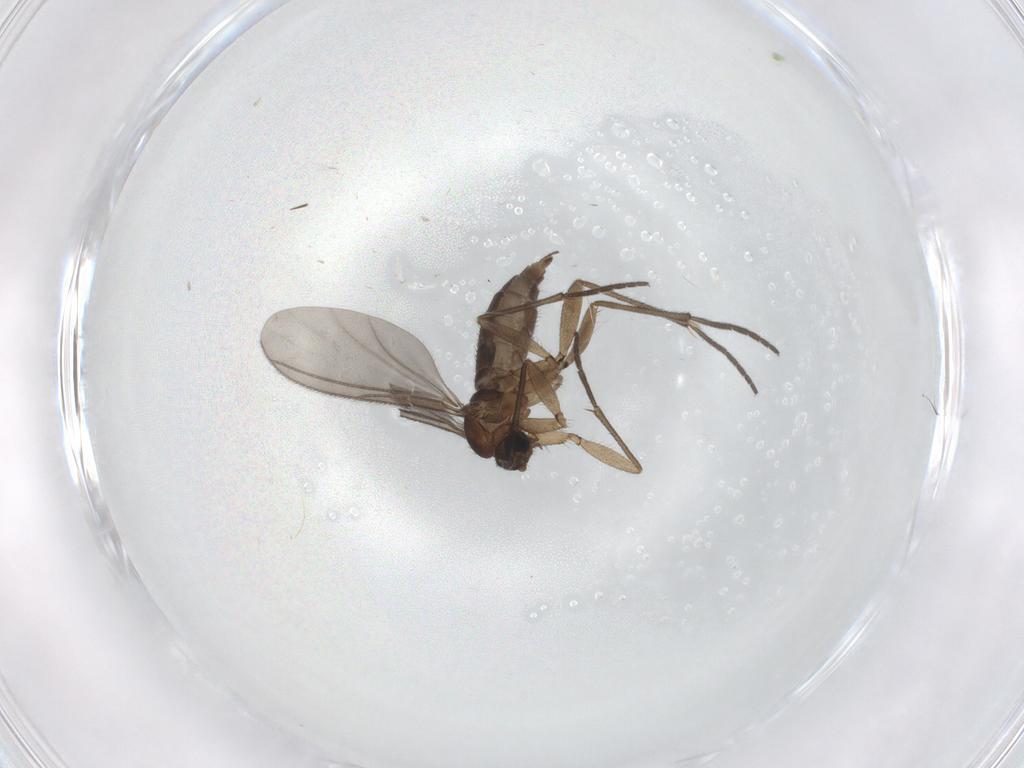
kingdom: Animalia
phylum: Arthropoda
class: Insecta
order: Diptera
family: Sciaridae
